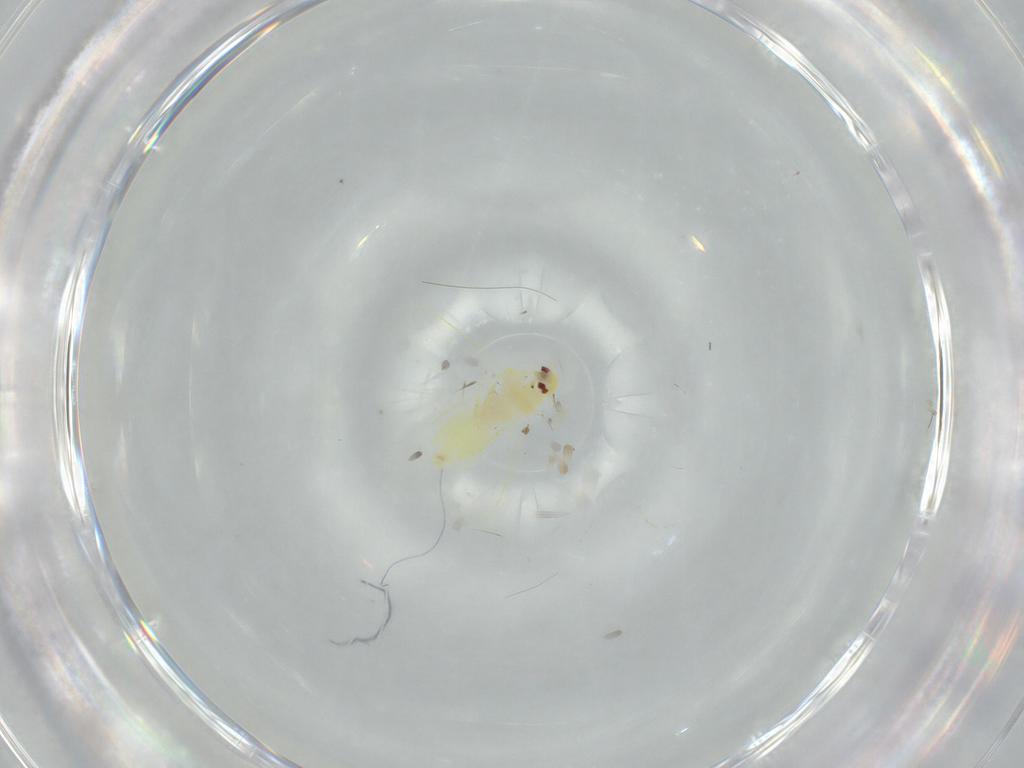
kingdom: Animalia
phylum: Arthropoda
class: Insecta
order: Hemiptera
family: Aleyrodidae
